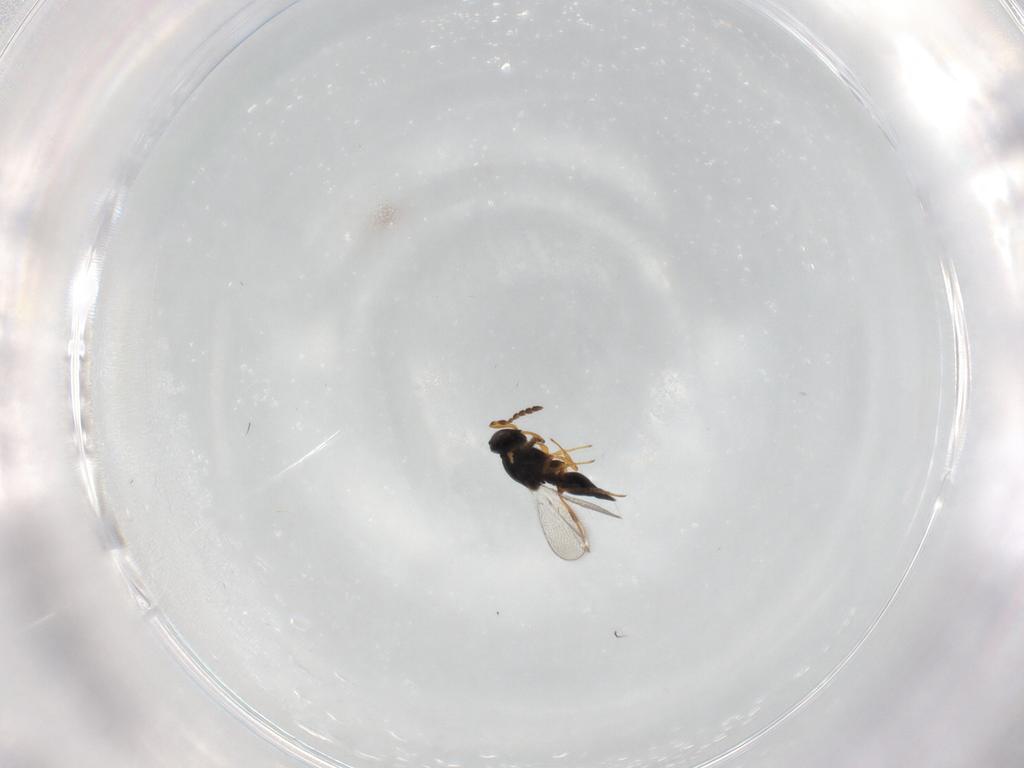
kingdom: Animalia
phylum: Arthropoda
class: Insecta
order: Hymenoptera
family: Platygastridae
